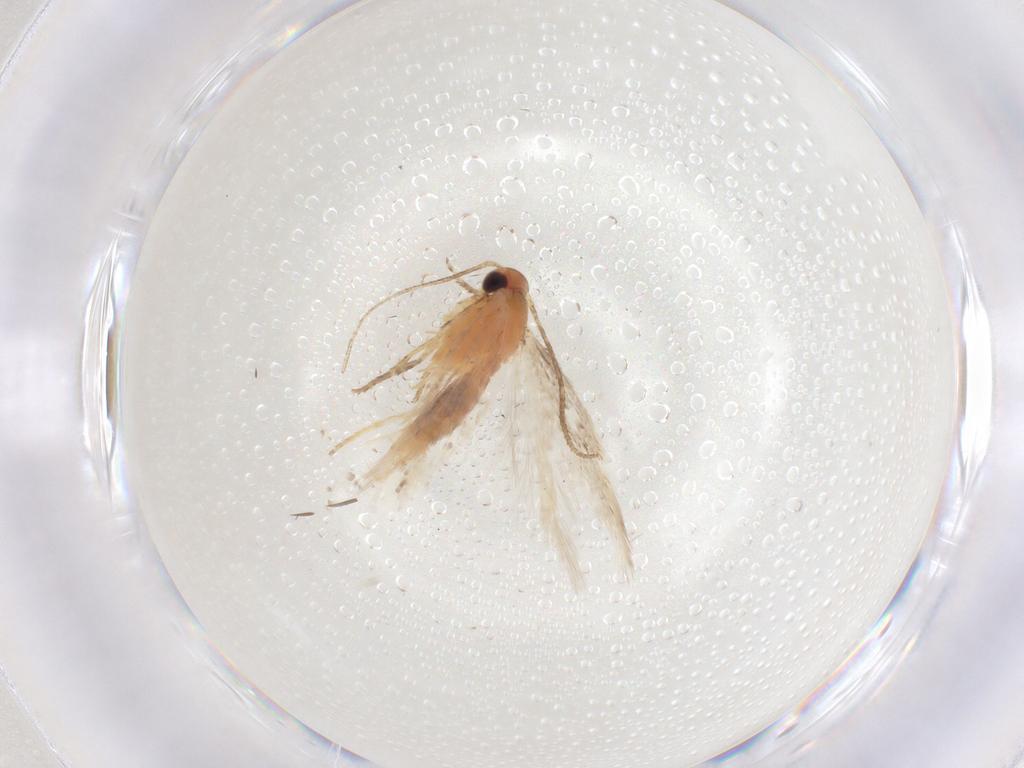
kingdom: Animalia
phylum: Arthropoda
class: Insecta
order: Lepidoptera
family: Gelechiidae
